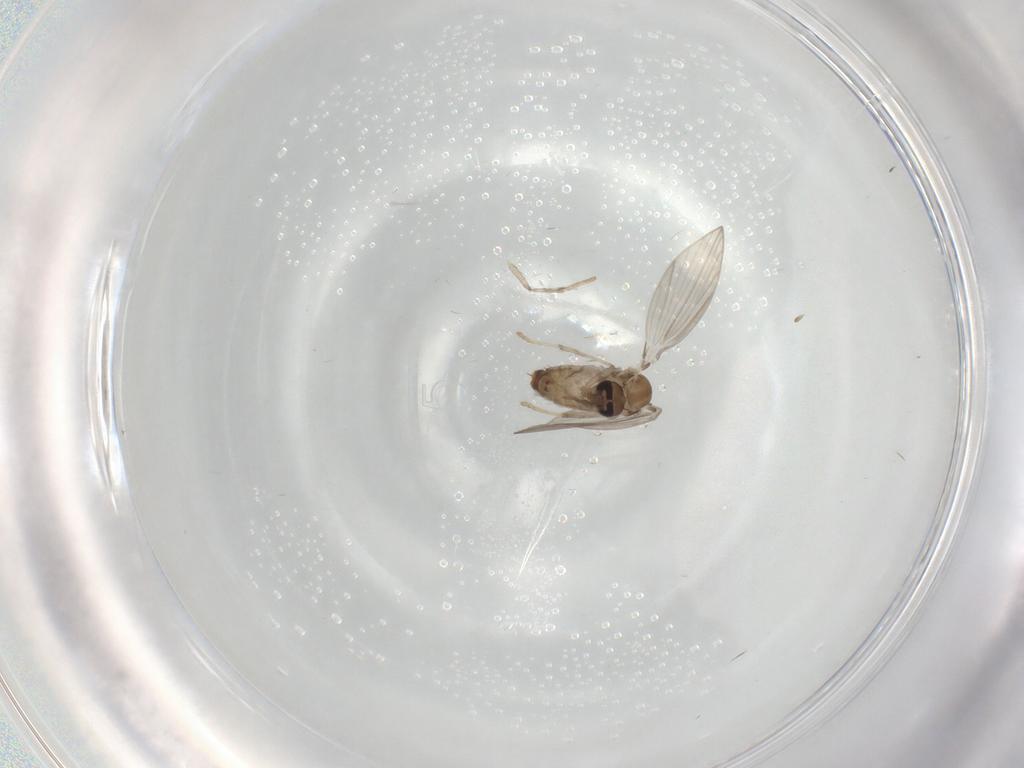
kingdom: Animalia
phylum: Arthropoda
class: Insecta
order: Diptera
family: Psychodidae
